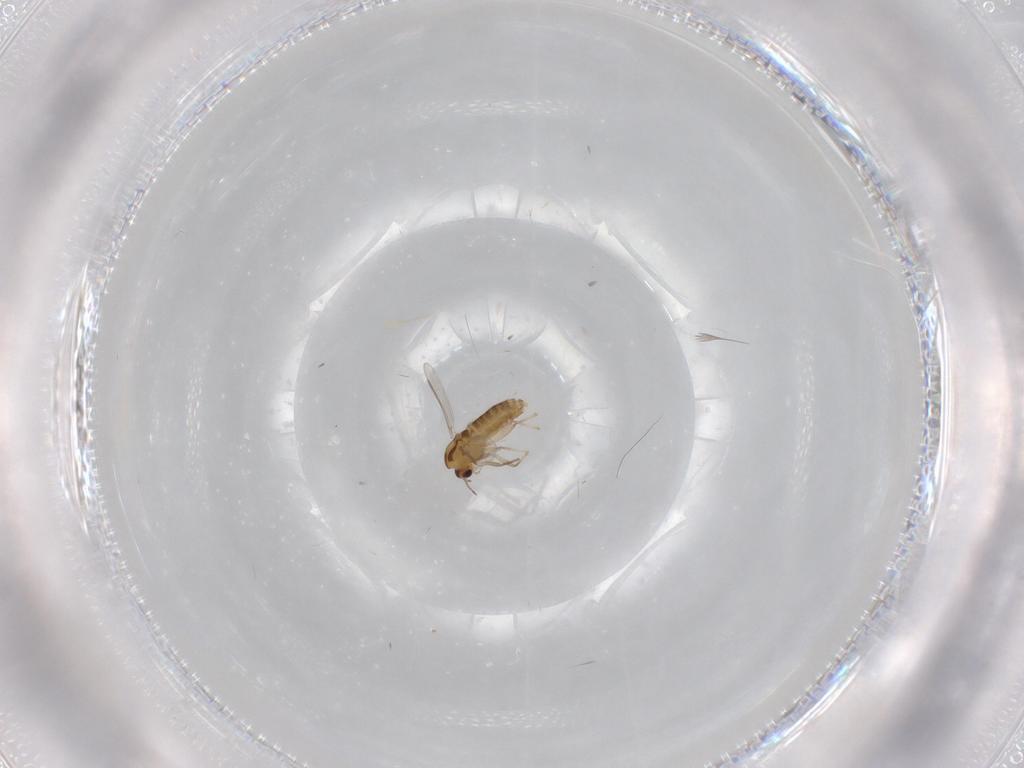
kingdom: Animalia
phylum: Arthropoda
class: Insecta
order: Diptera
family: Chironomidae
